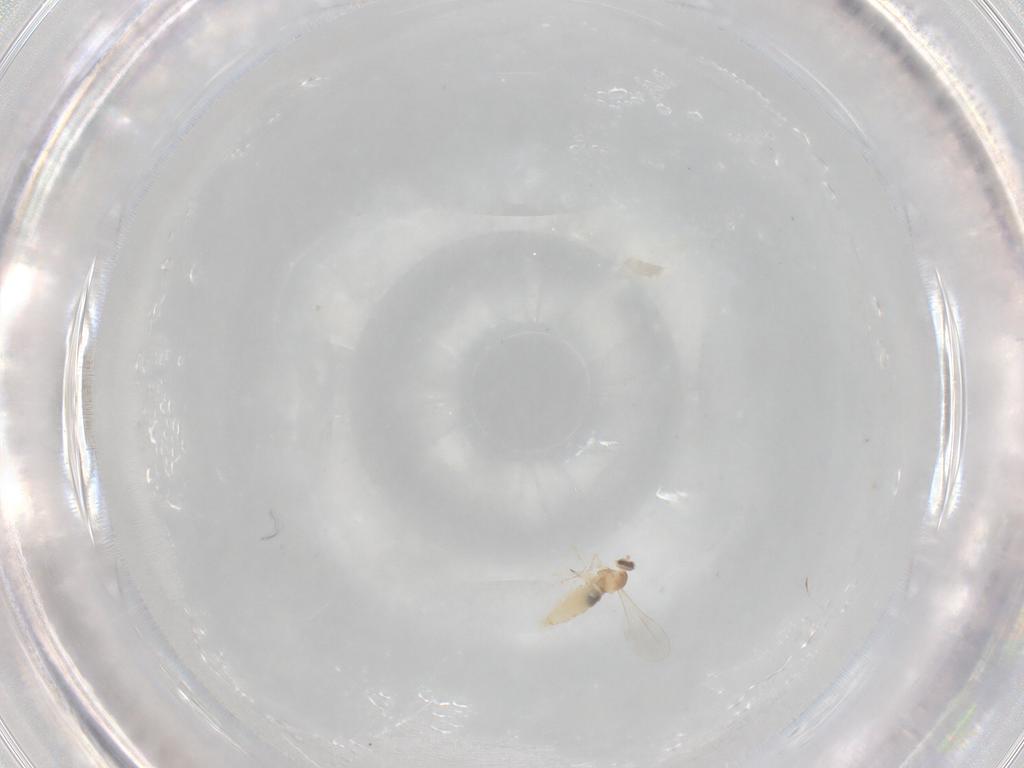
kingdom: Animalia
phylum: Arthropoda
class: Insecta
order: Diptera
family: Cecidomyiidae
